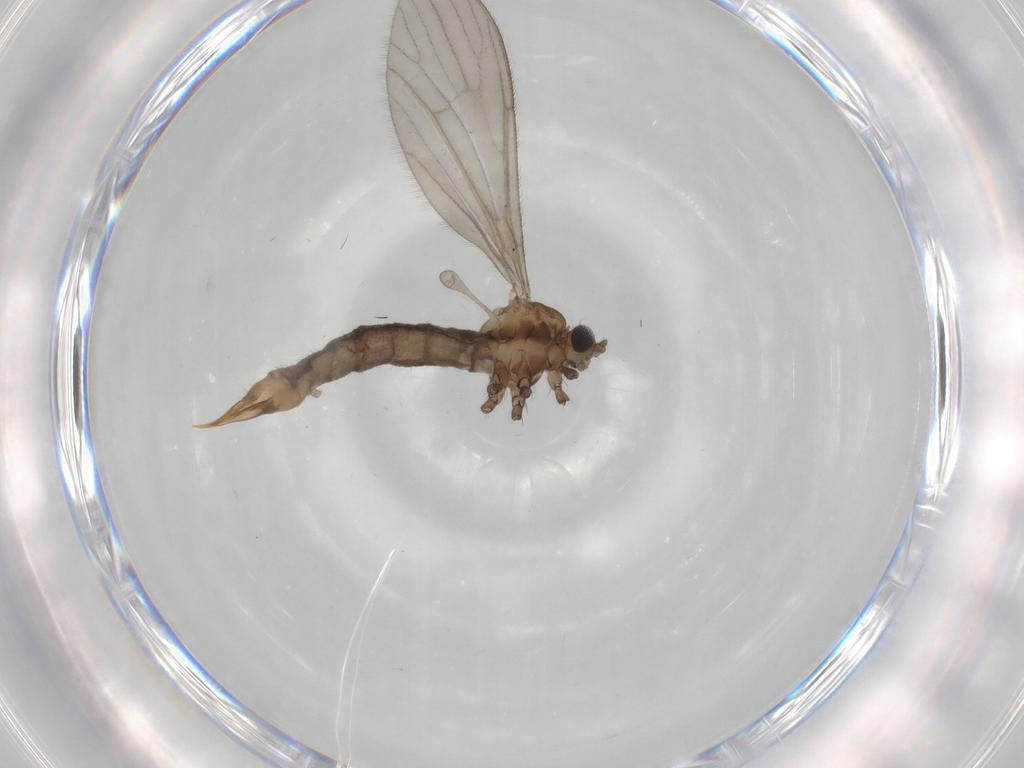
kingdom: Animalia
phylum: Arthropoda
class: Insecta
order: Diptera
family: Limoniidae
